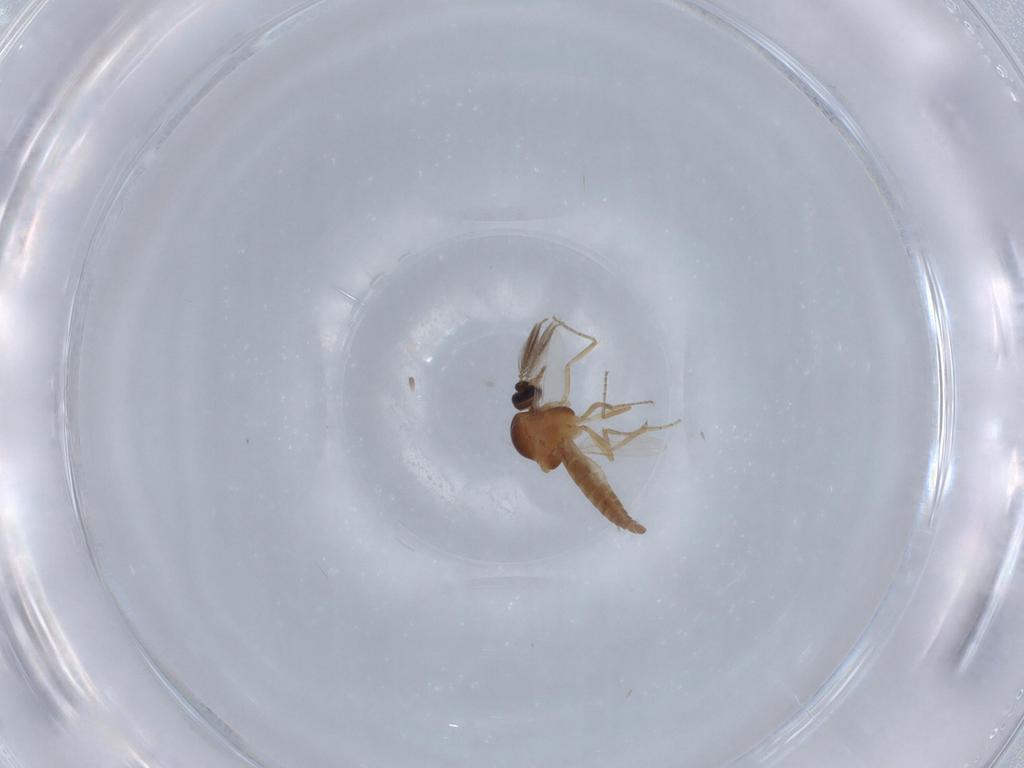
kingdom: Animalia
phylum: Arthropoda
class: Insecta
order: Diptera
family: Ceratopogonidae
